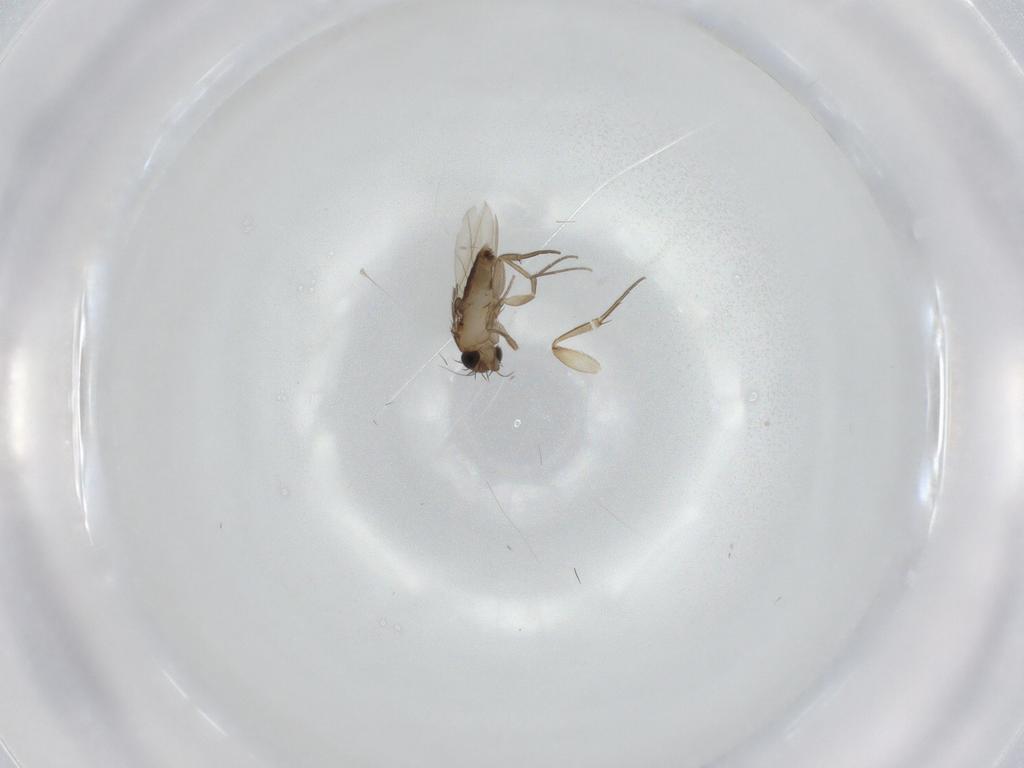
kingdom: Animalia
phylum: Arthropoda
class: Insecta
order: Diptera
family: Phoridae
